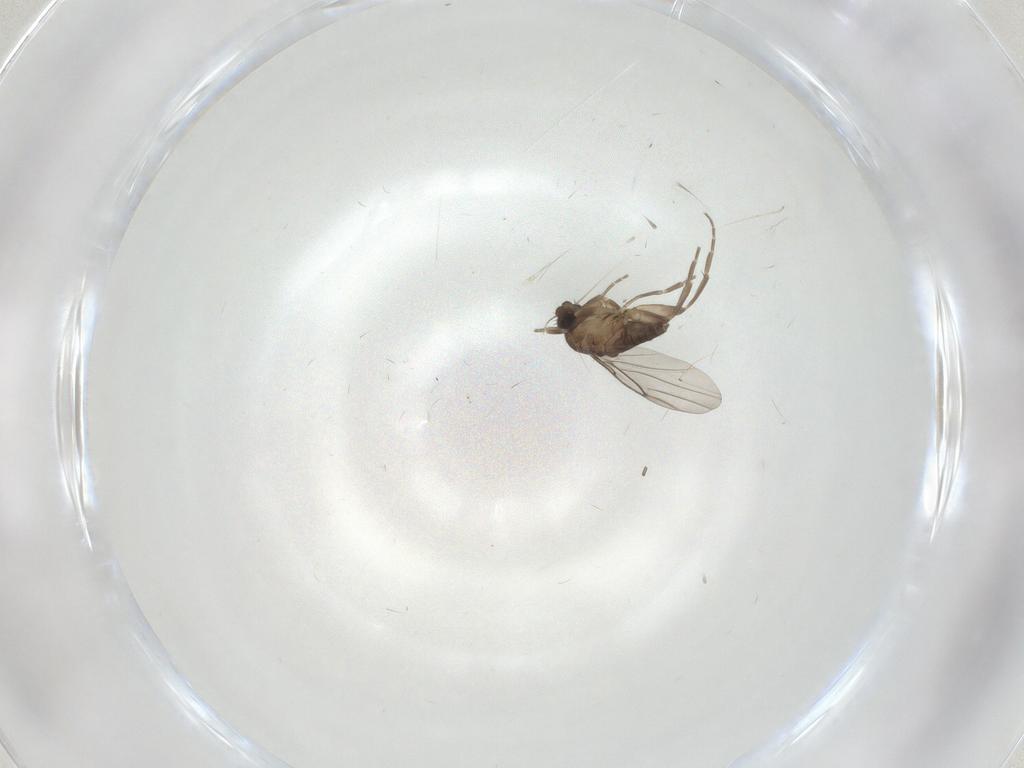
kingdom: Animalia
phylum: Arthropoda
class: Insecta
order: Diptera
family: Phoridae
